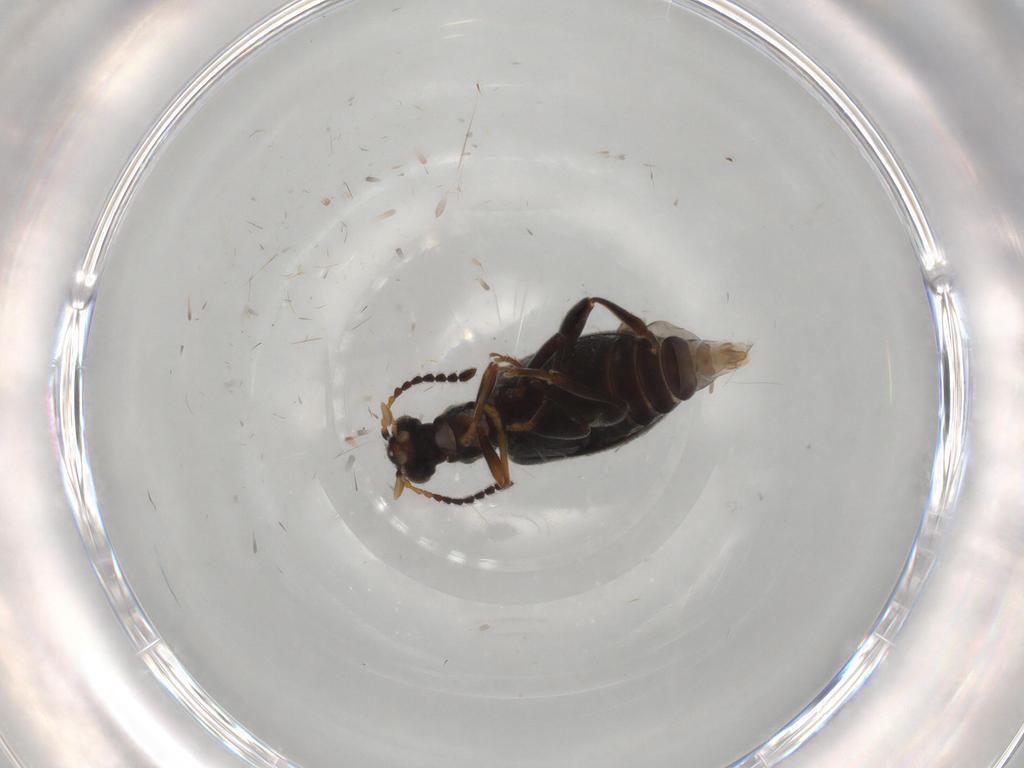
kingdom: Animalia
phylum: Arthropoda
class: Insecta
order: Coleoptera
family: Aderidae
